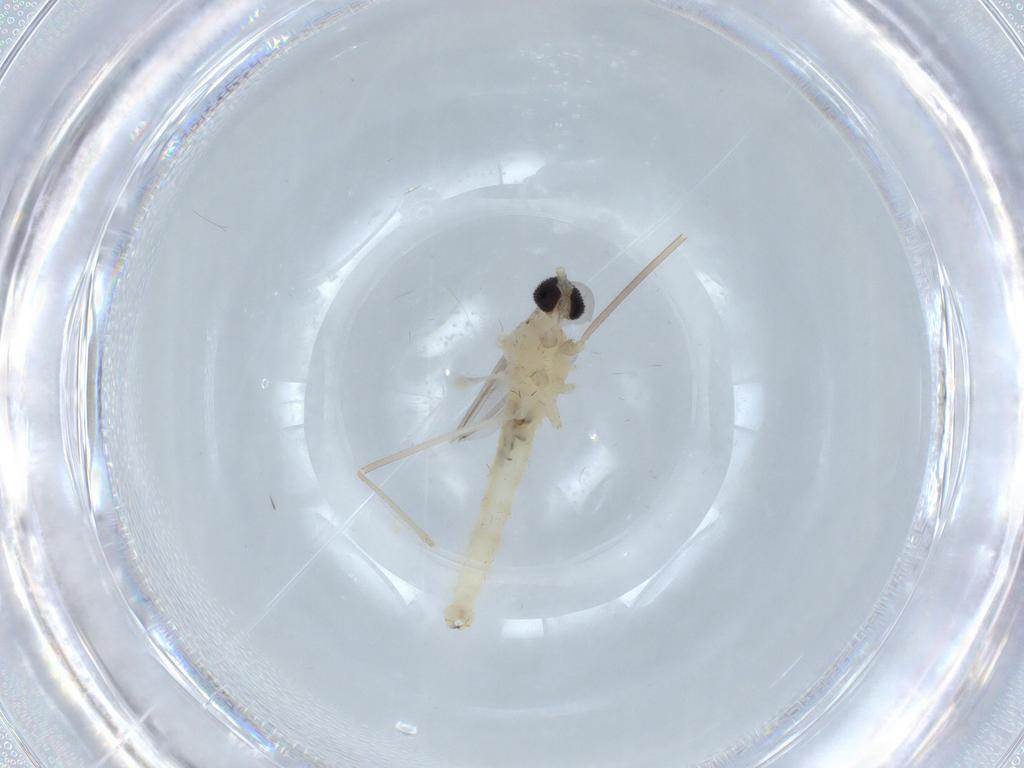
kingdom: Animalia
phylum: Arthropoda
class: Insecta
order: Diptera
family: Cecidomyiidae
